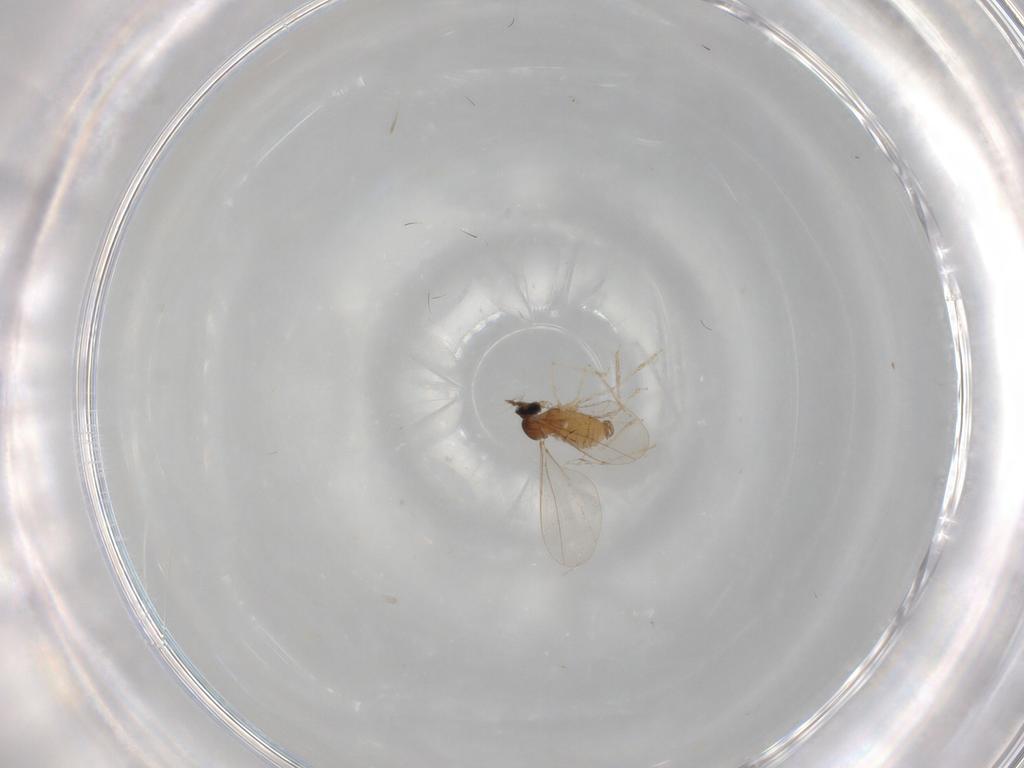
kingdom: Animalia
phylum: Arthropoda
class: Insecta
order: Diptera
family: Cecidomyiidae
